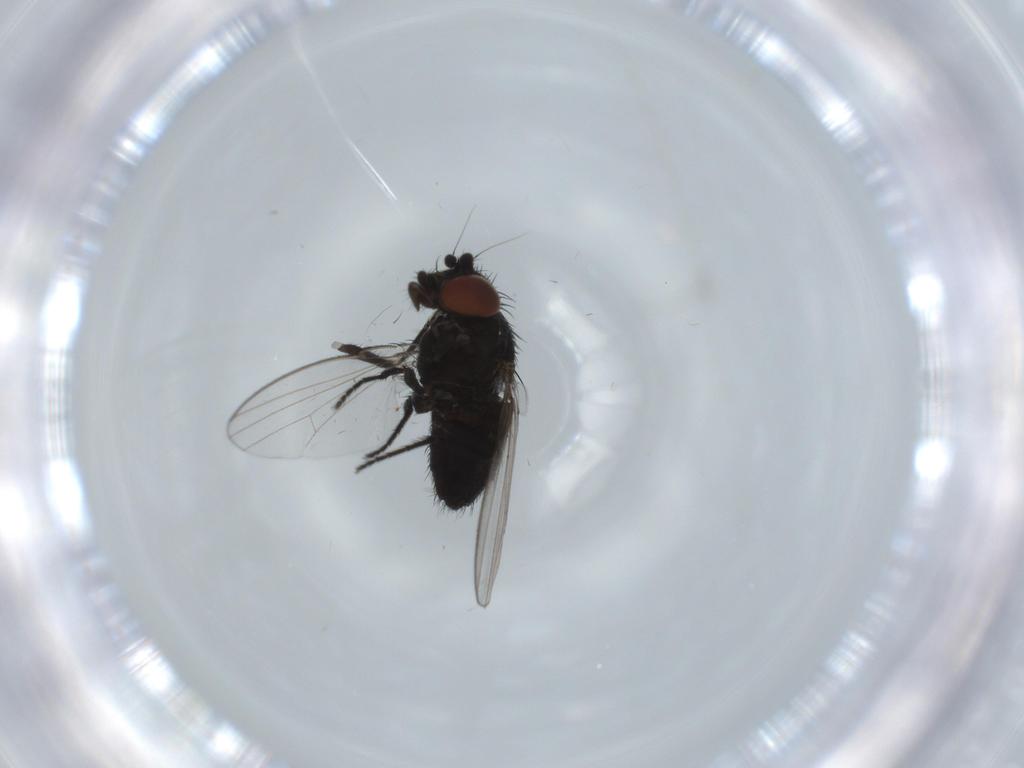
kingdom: Animalia
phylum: Arthropoda
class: Insecta
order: Diptera
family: Milichiidae
